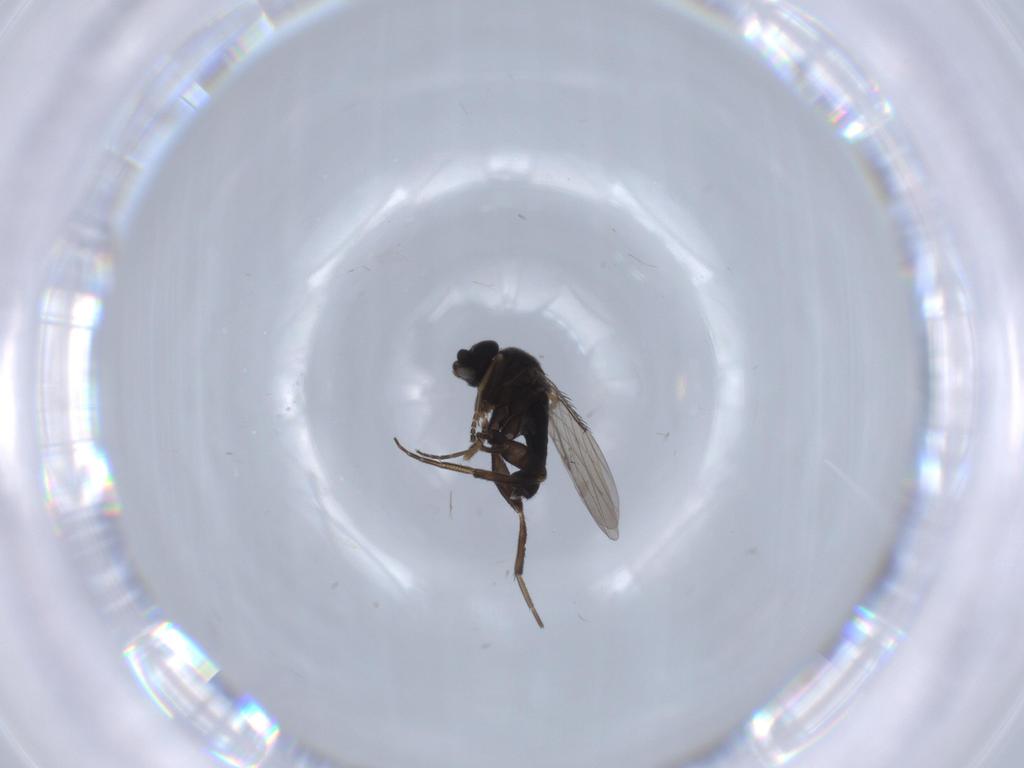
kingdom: Animalia
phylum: Arthropoda
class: Insecta
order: Diptera
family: Phoridae
